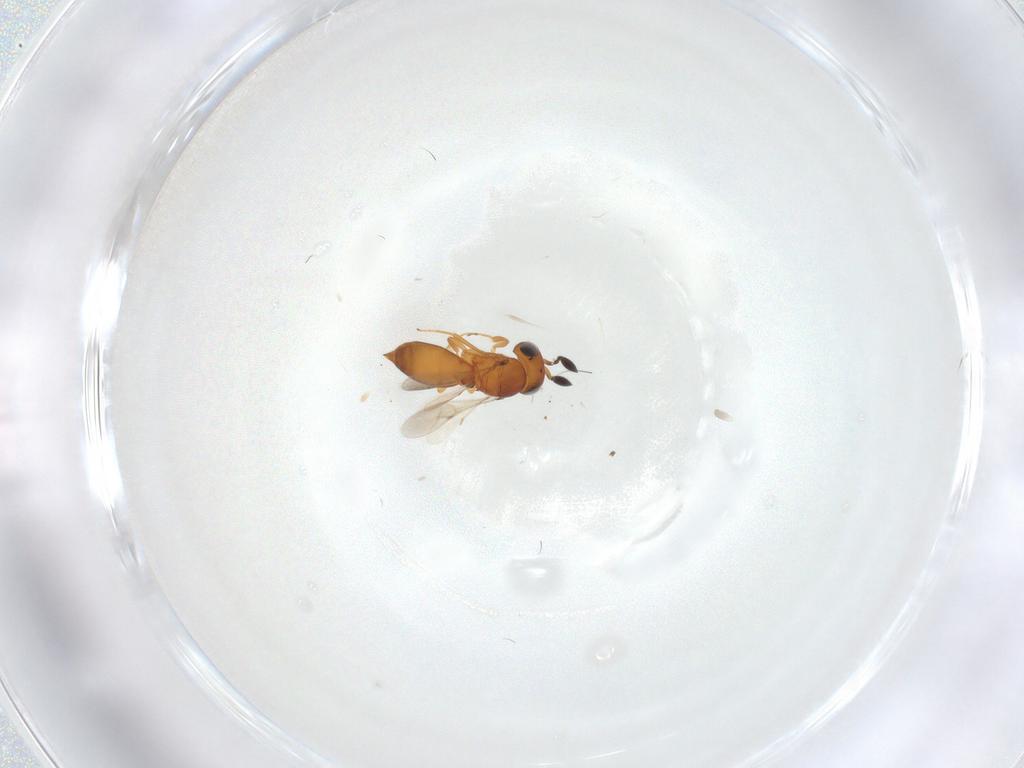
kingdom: Animalia
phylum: Arthropoda
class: Insecta
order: Hymenoptera
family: Scelionidae
